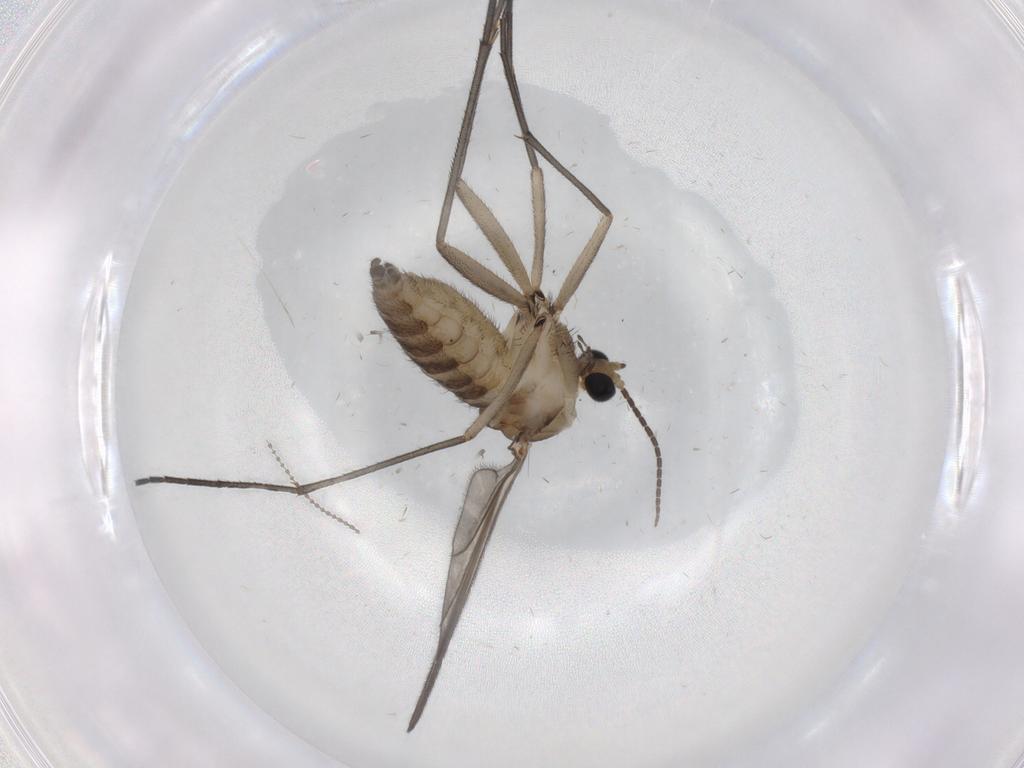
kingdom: Animalia
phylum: Arthropoda
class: Insecta
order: Diptera
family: Sciaridae
